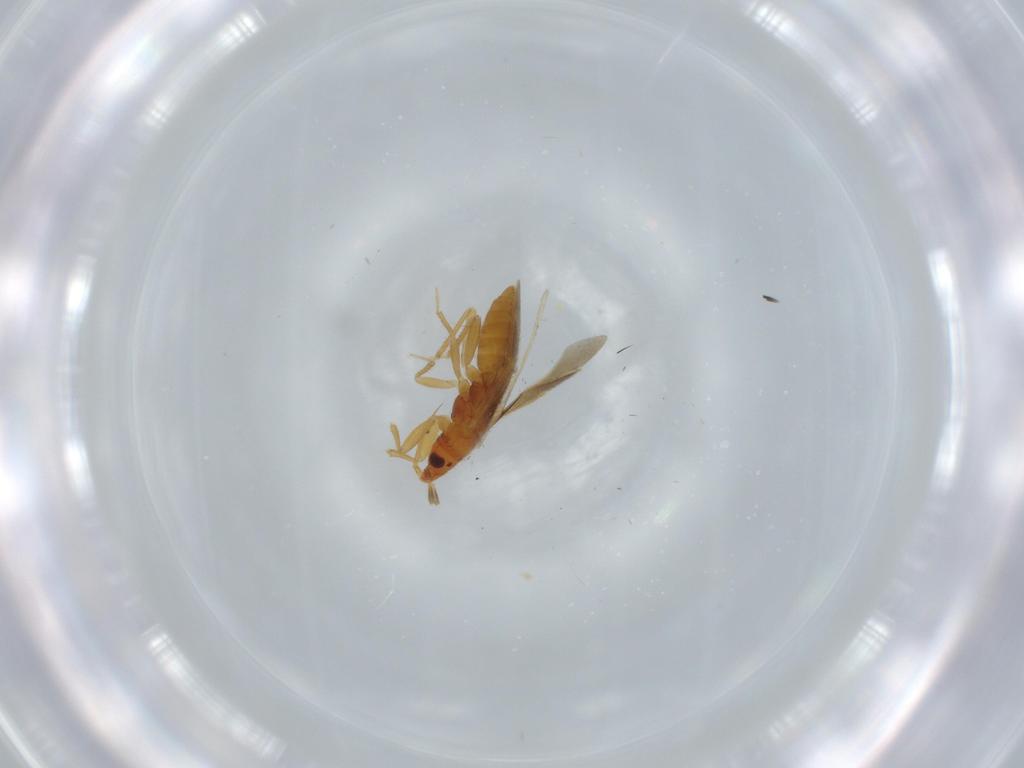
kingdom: Animalia
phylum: Arthropoda
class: Insecta
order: Hemiptera
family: Lasiochilidae
